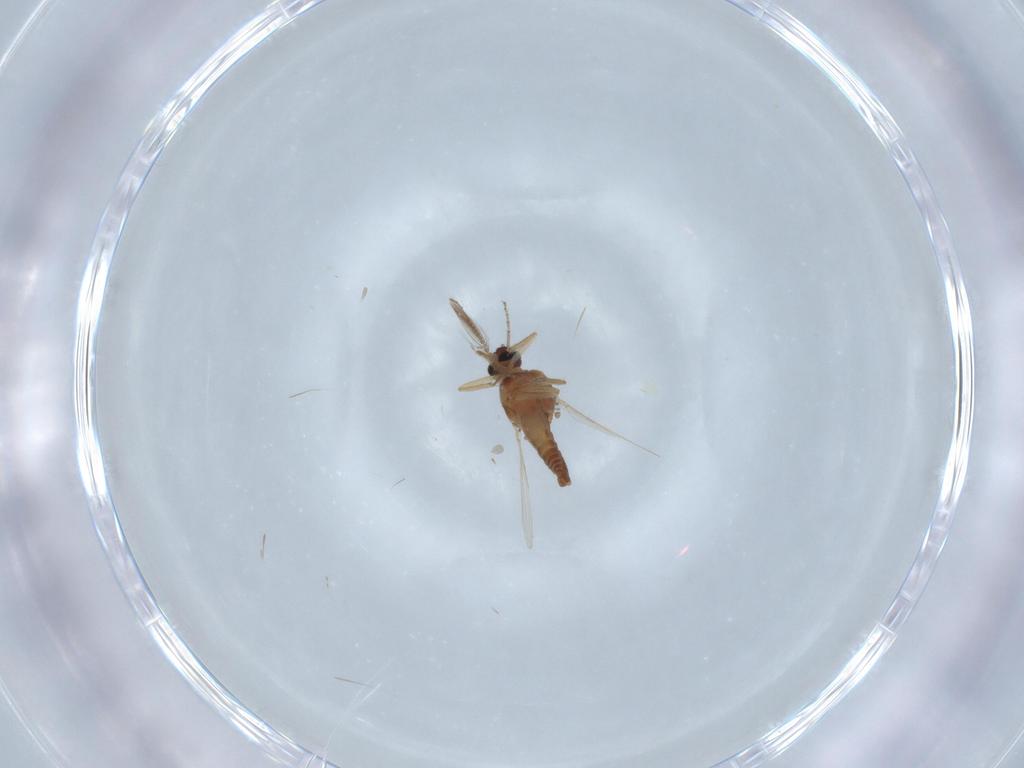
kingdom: Animalia
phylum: Arthropoda
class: Insecta
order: Diptera
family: Ceratopogonidae
